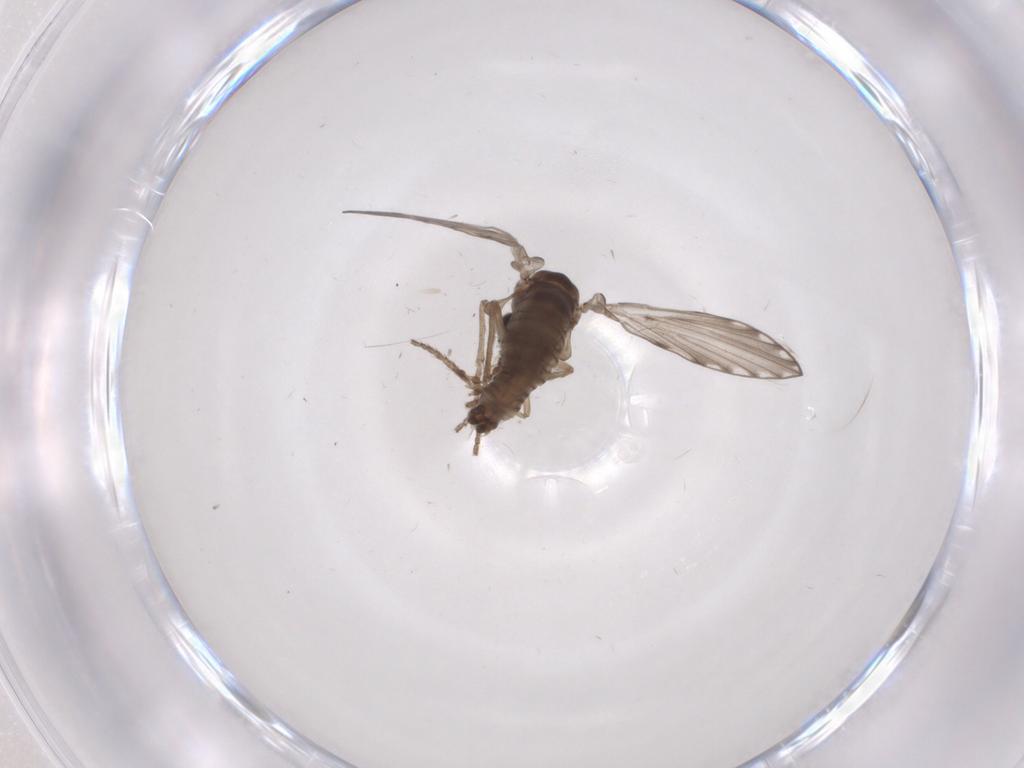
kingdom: Animalia
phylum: Arthropoda
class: Insecta
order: Diptera
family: Psychodidae
